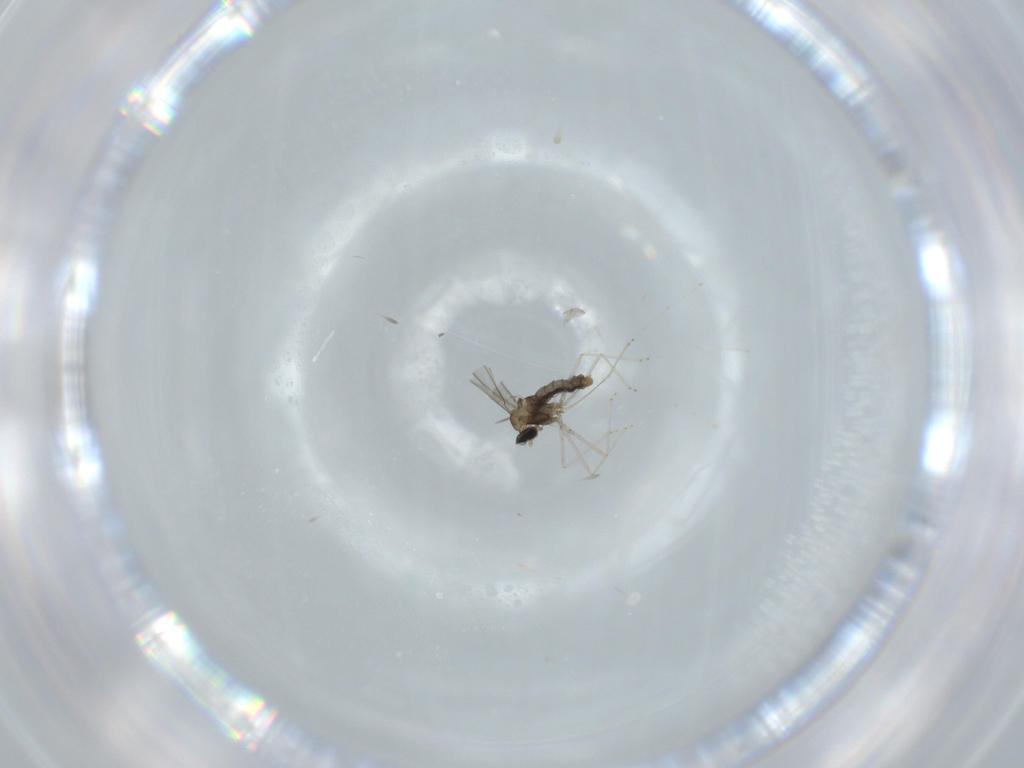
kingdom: Animalia
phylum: Arthropoda
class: Insecta
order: Diptera
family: Cecidomyiidae
